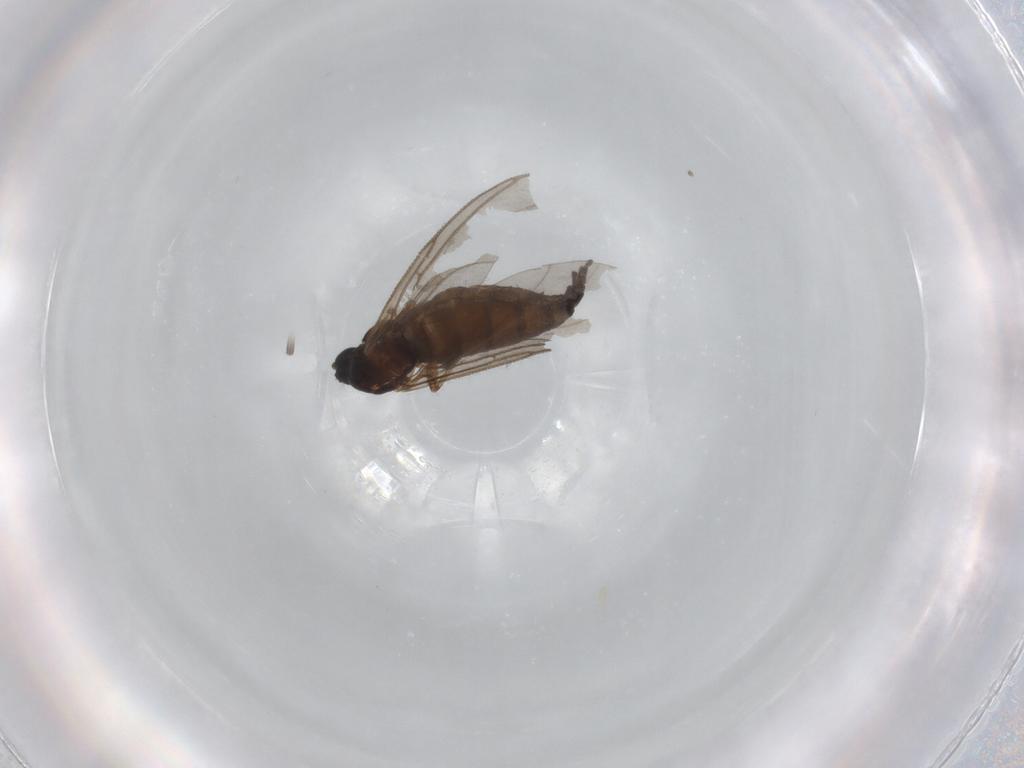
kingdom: Animalia
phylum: Arthropoda
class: Insecta
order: Diptera
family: Sciaridae
